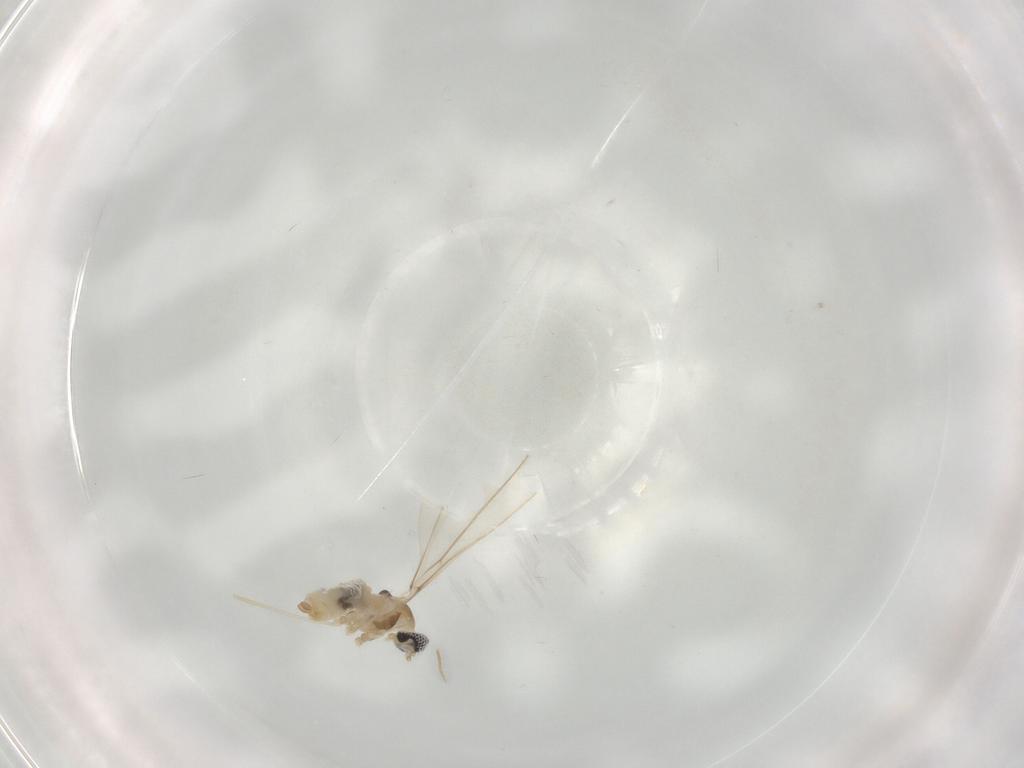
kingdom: Animalia
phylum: Arthropoda
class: Insecta
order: Diptera
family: Cecidomyiidae
